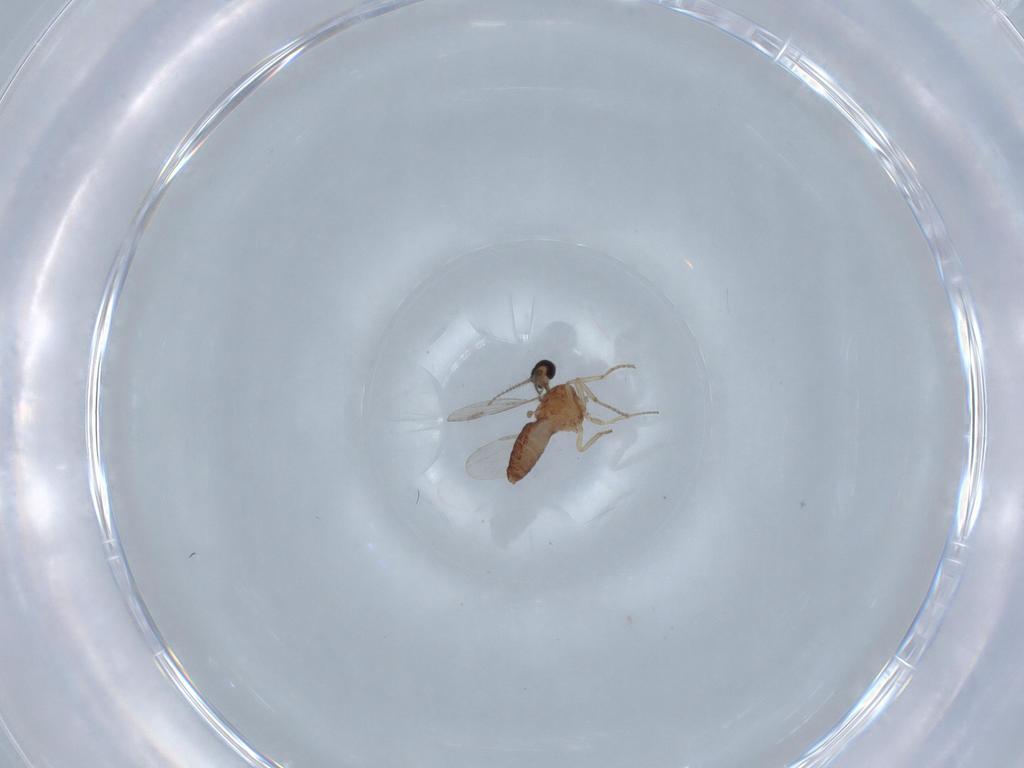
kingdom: Animalia
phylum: Arthropoda
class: Insecta
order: Diptera
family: Ceratopogonidae
